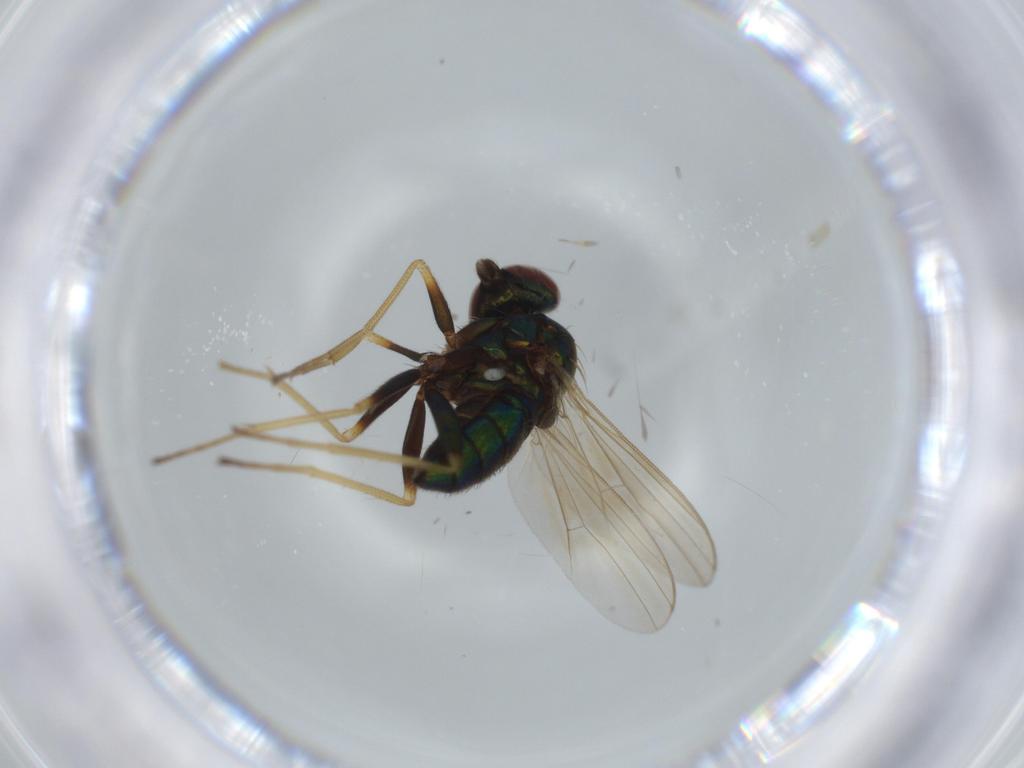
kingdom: Animalia
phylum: Arthropoda
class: Insecta
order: Diptera
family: Dolichopodidae
